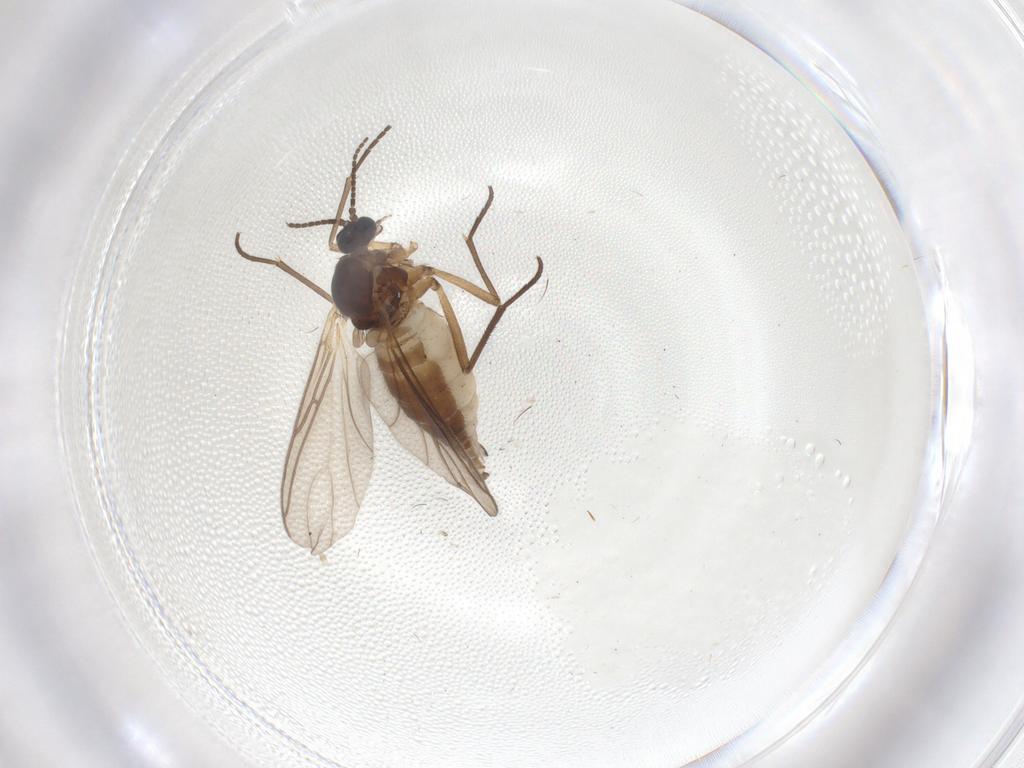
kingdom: Animalia
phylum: Arthropoda
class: Insecta
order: Diptera
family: Sciaridae
